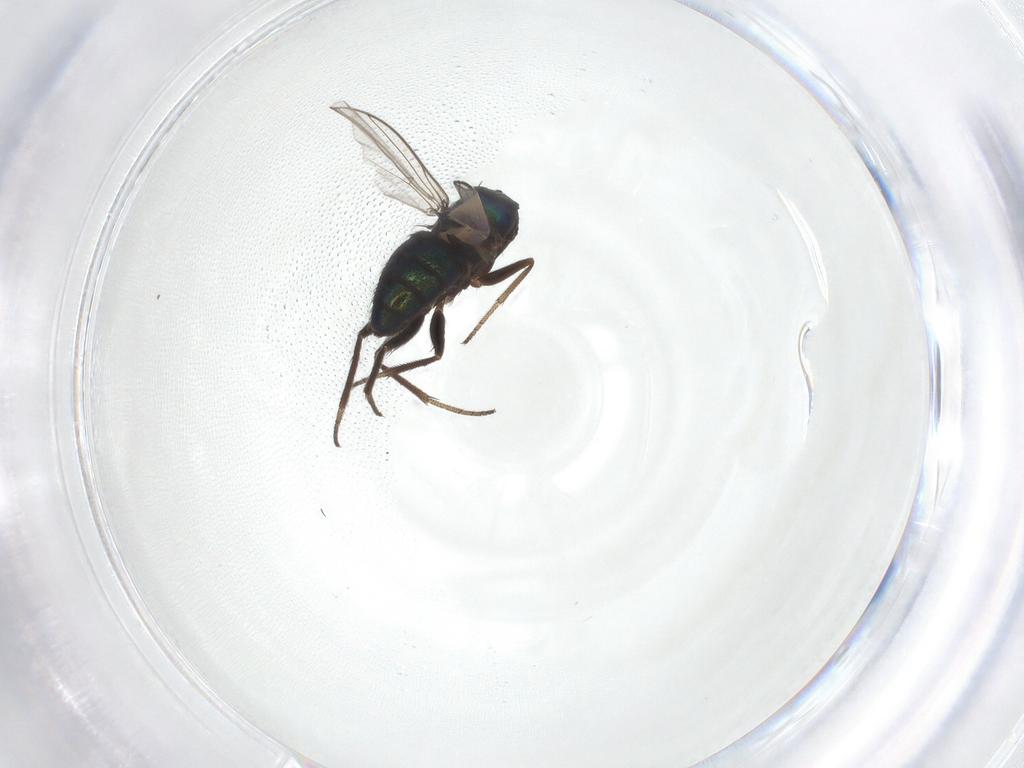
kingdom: Animalia
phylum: Arthropoda
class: Insecta
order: Diptera
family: Dolichopodidae
